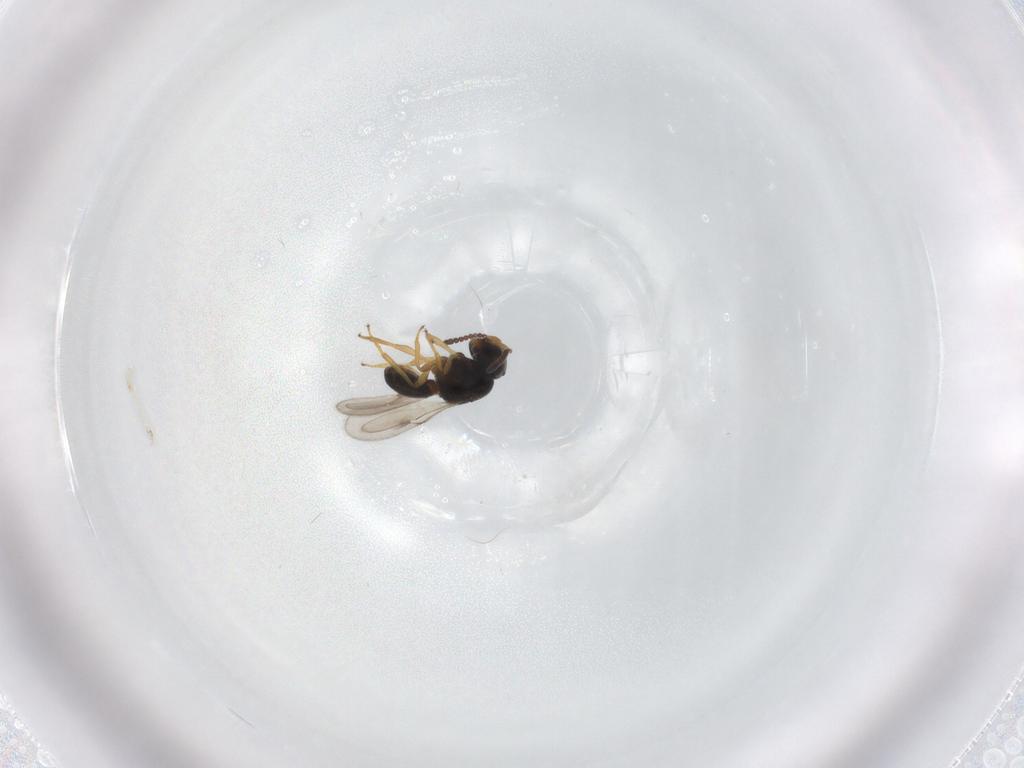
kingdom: Animalia
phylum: Arthropoda
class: Insecta
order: Hymenoptera
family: Scelionidae
